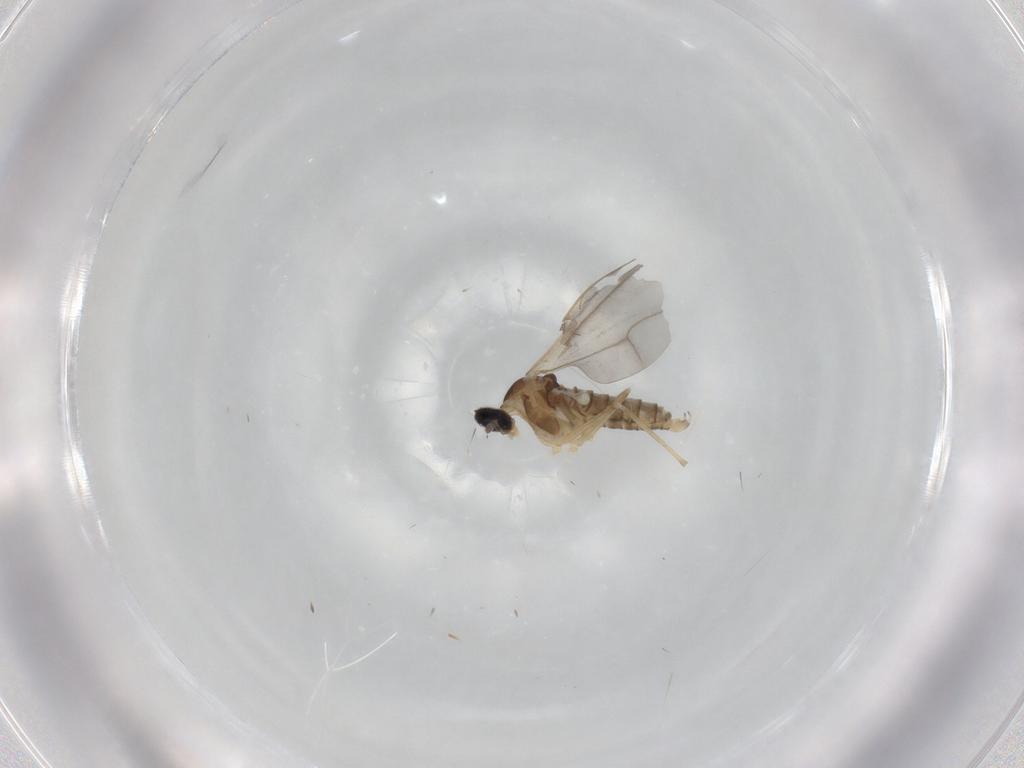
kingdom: Animalia
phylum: Arthropoda
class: Insecta
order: Diptera
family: Cecidomyiidae
